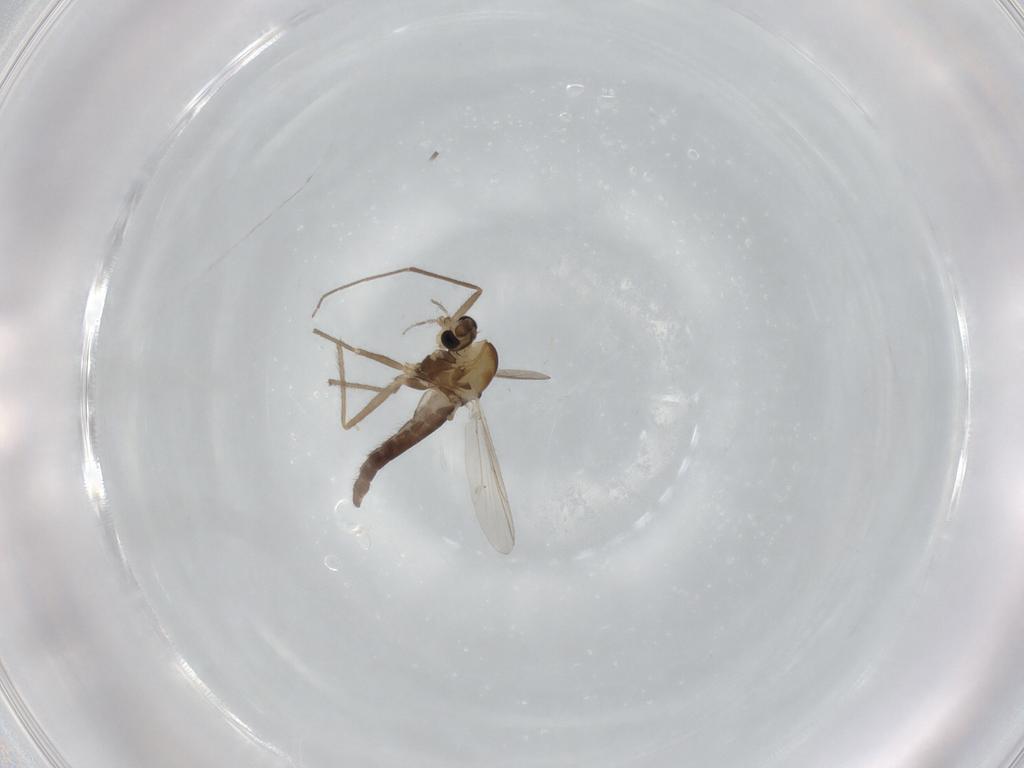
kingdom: Animalia
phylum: Arthropoda
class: Insecta
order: Diptera
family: Chironomidae
